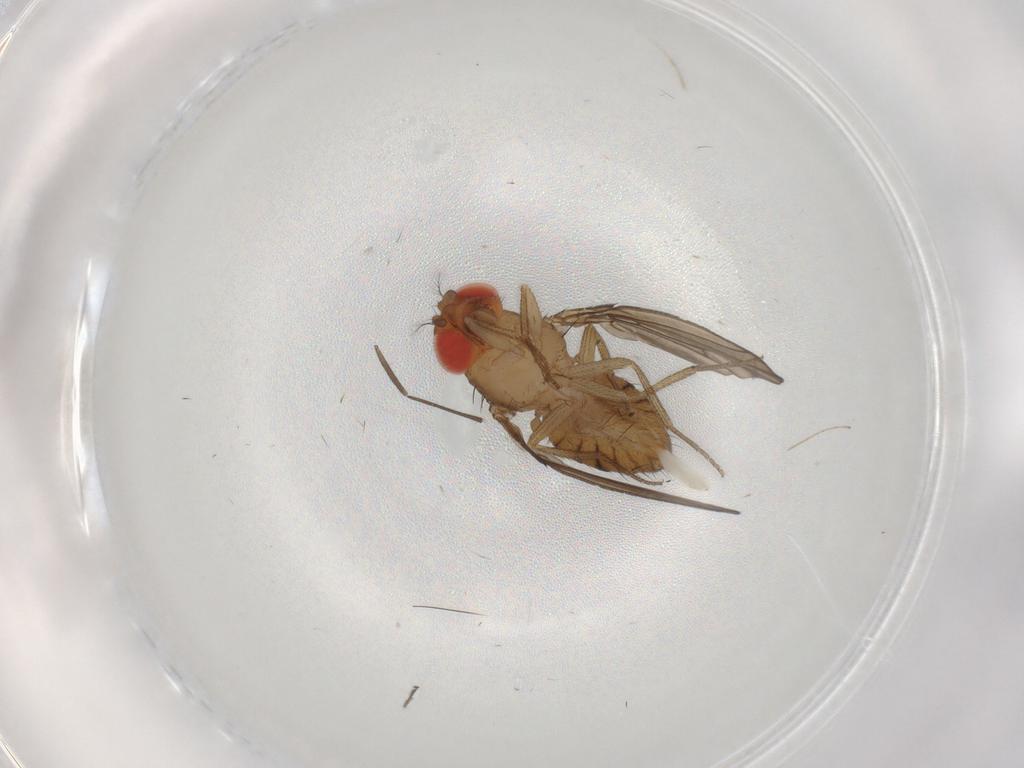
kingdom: Animalia
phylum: Arthropoda
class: Insecta
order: Diptera
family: Drosophilidae
